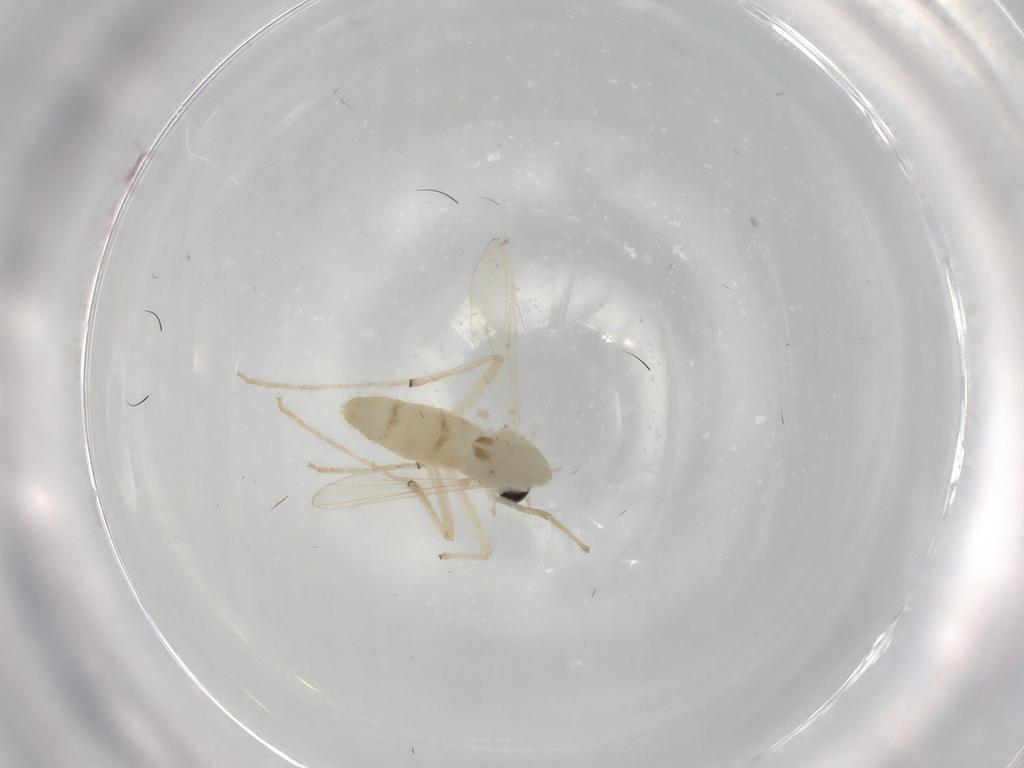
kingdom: Animalia
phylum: Arthropoda
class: Insecta
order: Diptera
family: Chironomidae
